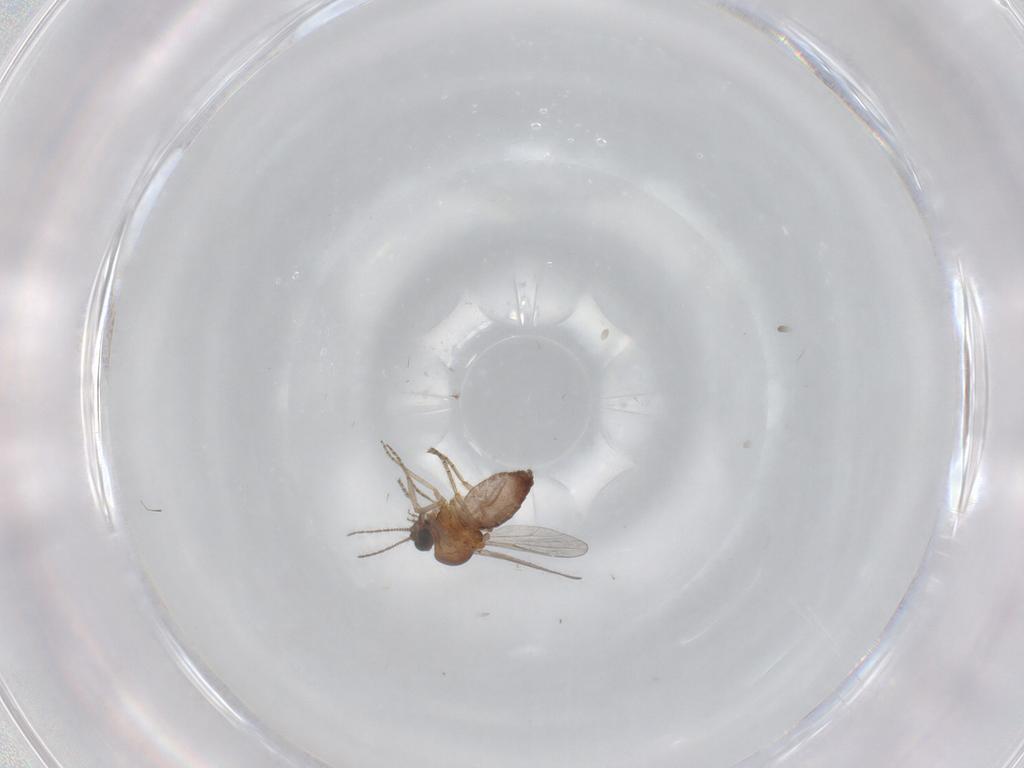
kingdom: Animalia
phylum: Arthropoda
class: Insecta
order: Diptera
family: Ceratopogonidae
